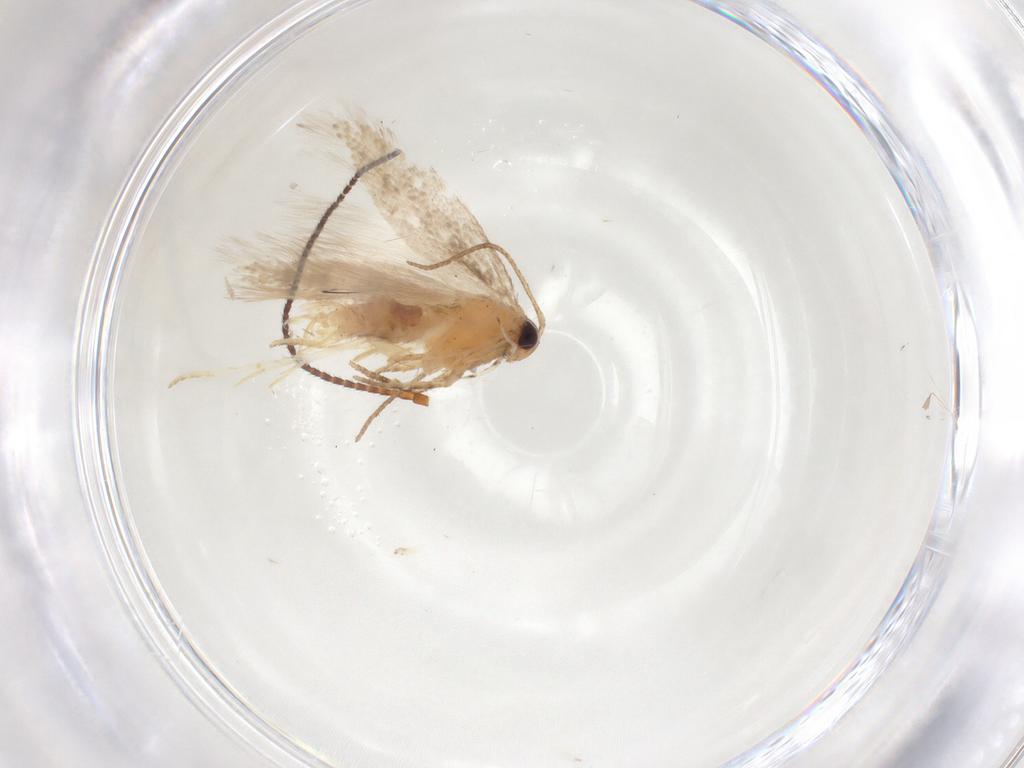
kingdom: Animalia
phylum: Arthropoda
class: Insecta
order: Lepidoptera
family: Gelechiidae
